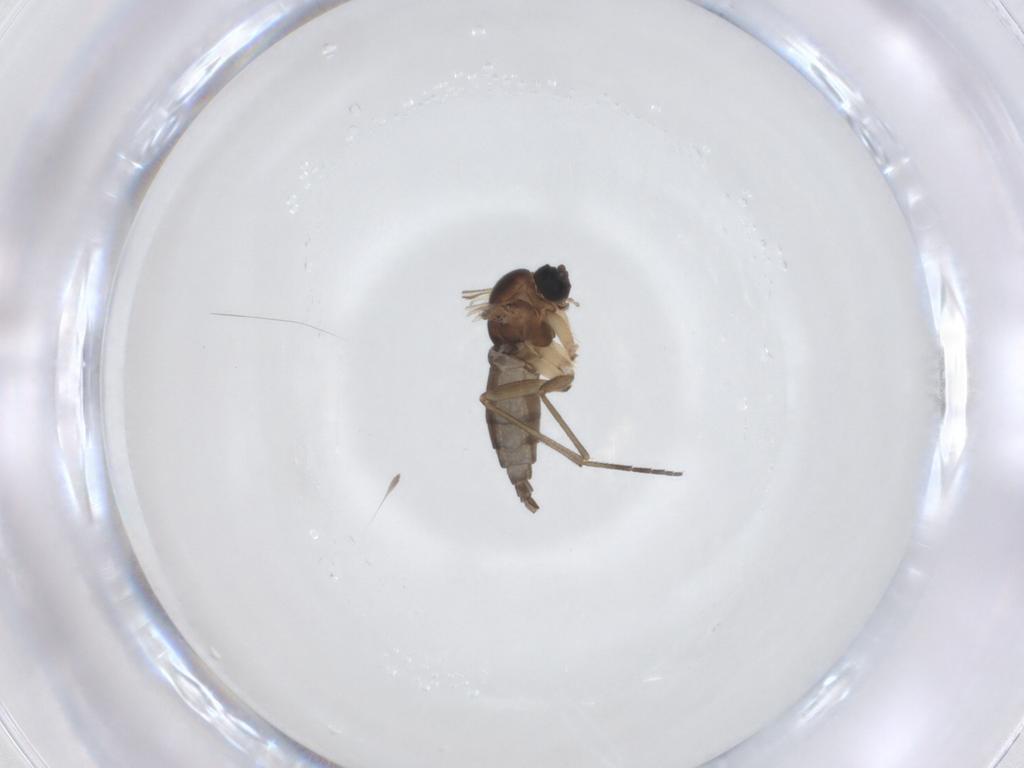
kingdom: Animalia
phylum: Arthropoda
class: Insecta
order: Diptera
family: Sciaridae
